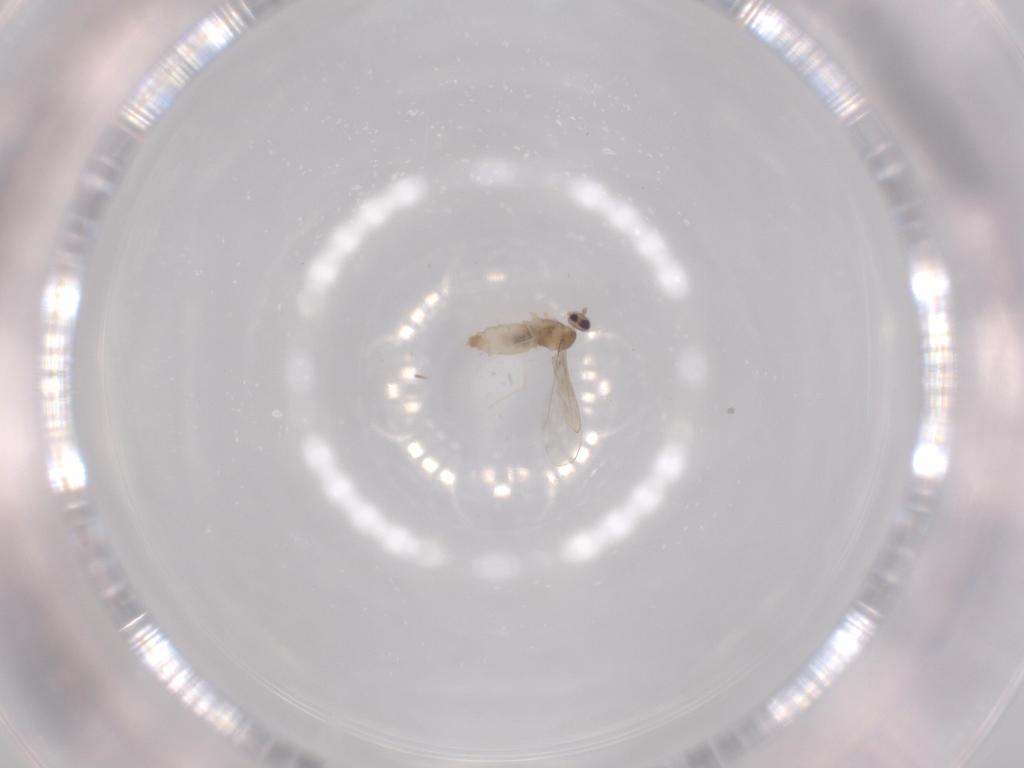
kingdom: Animalia
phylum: Arthropoda
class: Insecta
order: Diptera
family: Cecidomyiidae
